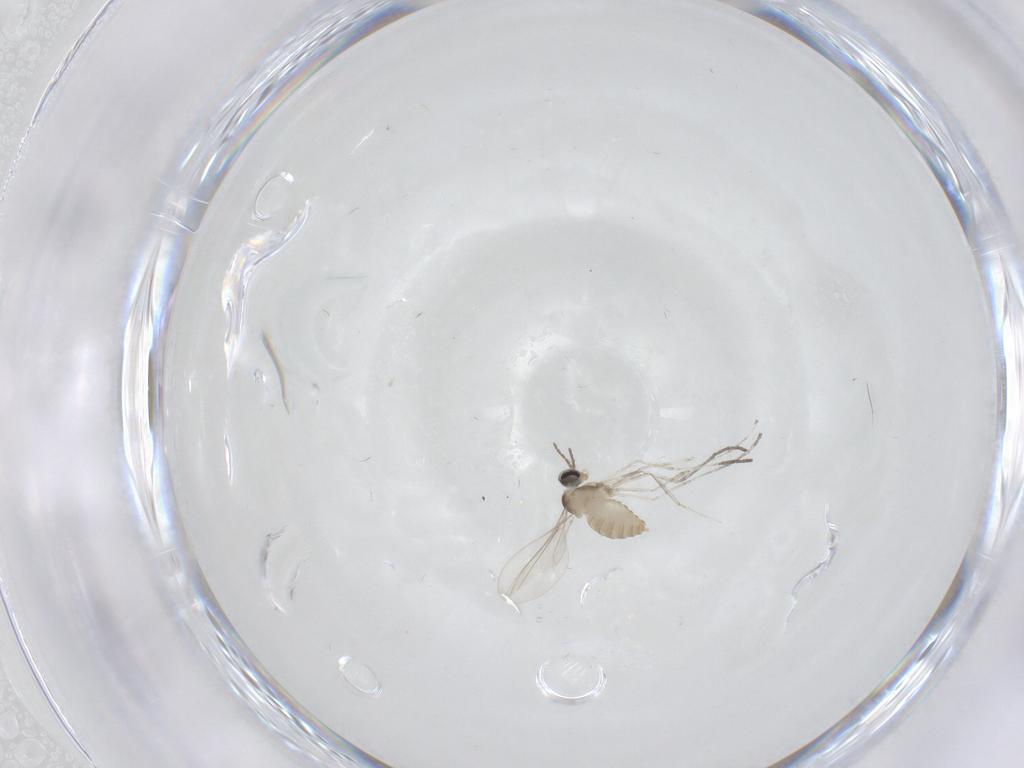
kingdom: Animalia
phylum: Arthropoda
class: Insecta
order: Diptera
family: Cecidomyiidae
